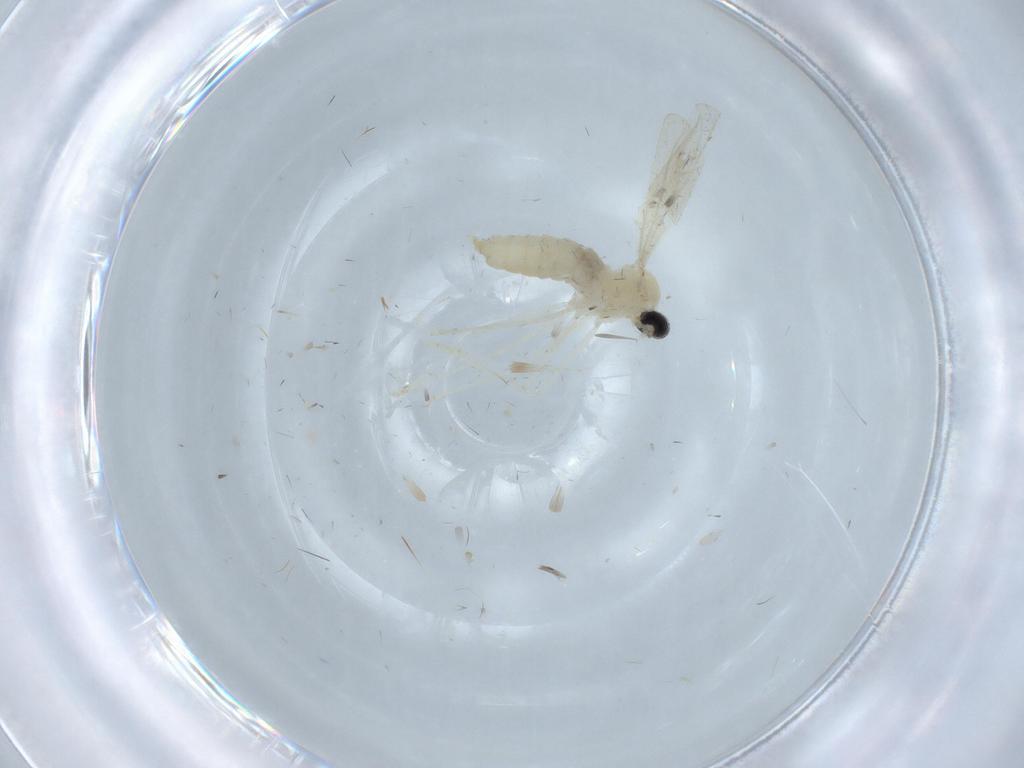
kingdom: Animalia
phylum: Arthropoda
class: Insecta
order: Diptera
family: Cecidomyiidae
